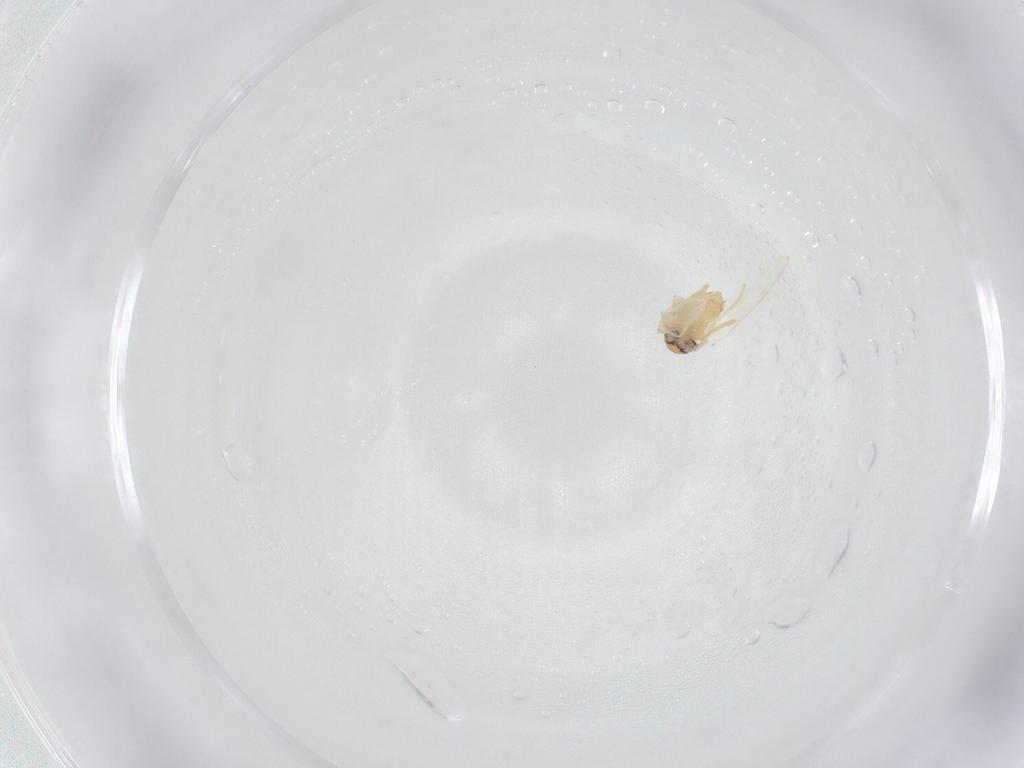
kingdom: Animalia
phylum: Arthropoda
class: Insecta
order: Diptera
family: Psychodidae
